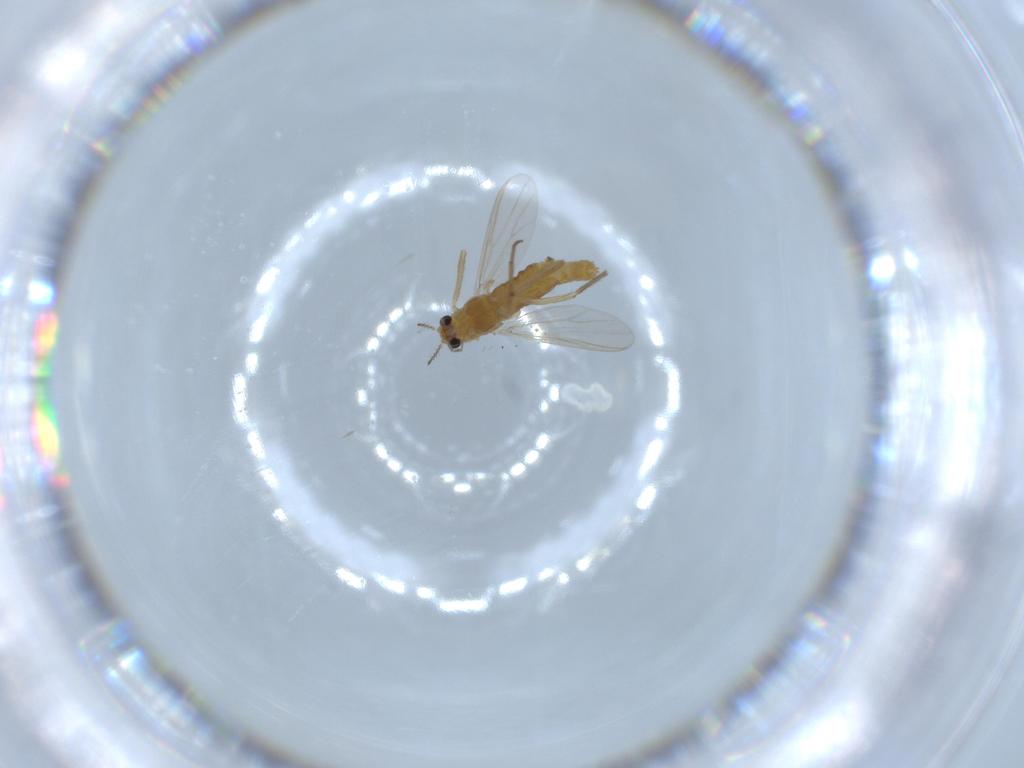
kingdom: Animalia
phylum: Arthropoda
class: Insecta
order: Diptera
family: Chironomidae
